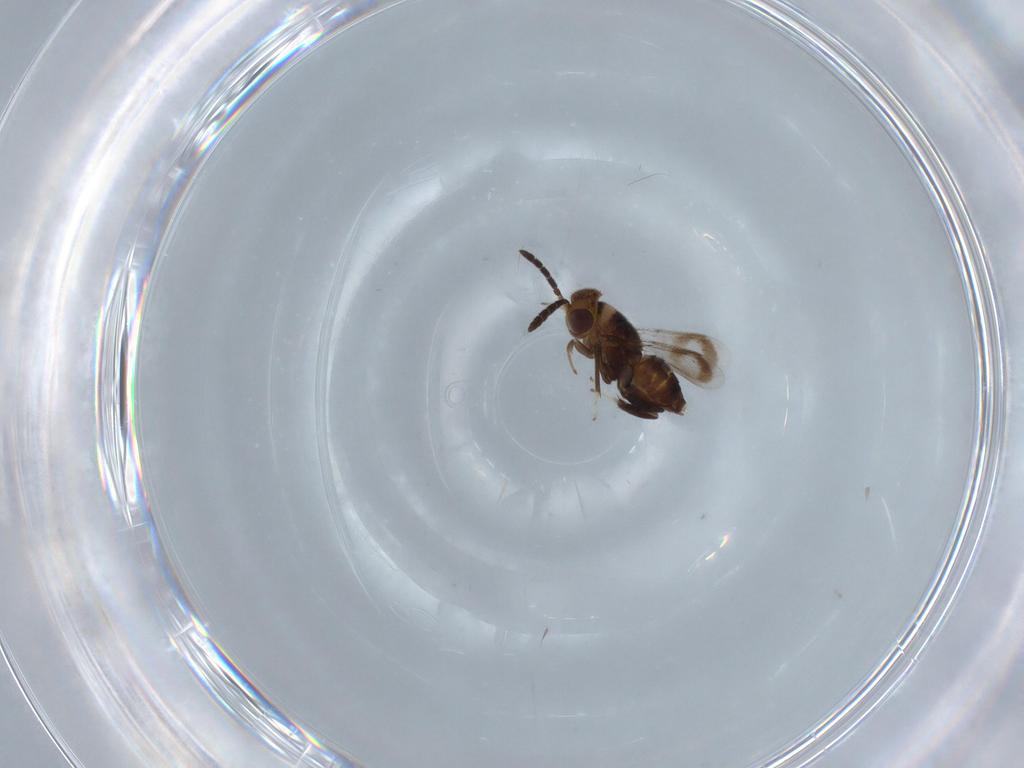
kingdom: Animalia
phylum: Arthropoda
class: Insecta
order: Hymenoptera
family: Aphelinidae
